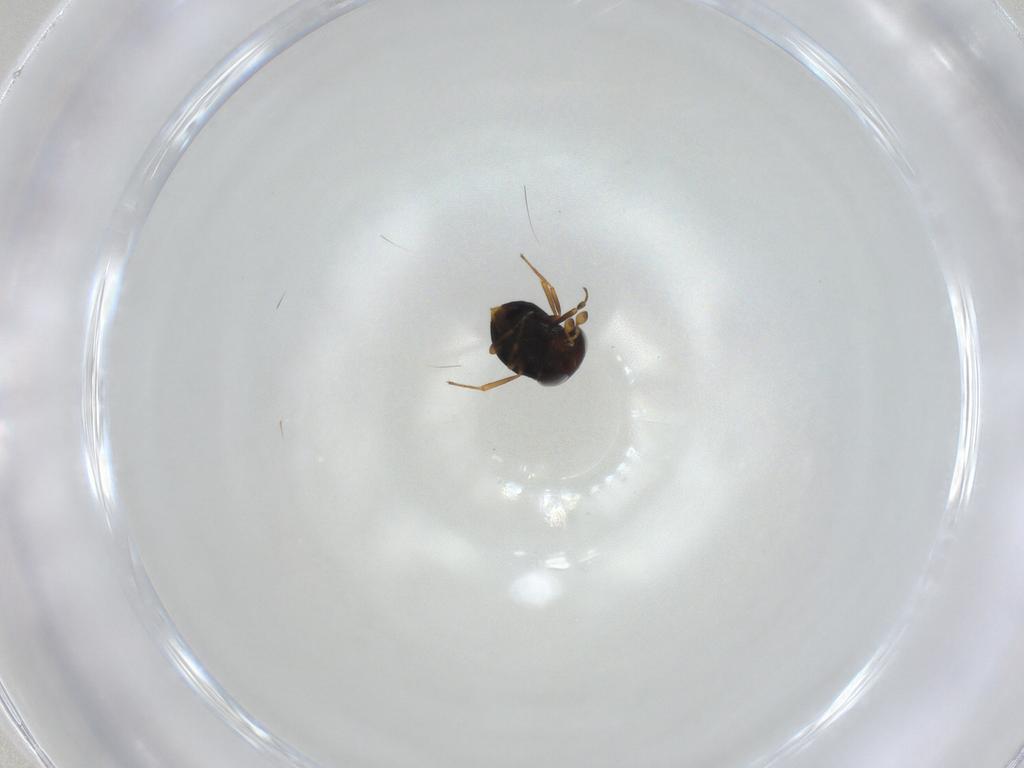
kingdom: Animalia
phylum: Arthropoda
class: Insecta
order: Hymenoptera
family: Scelionidae
